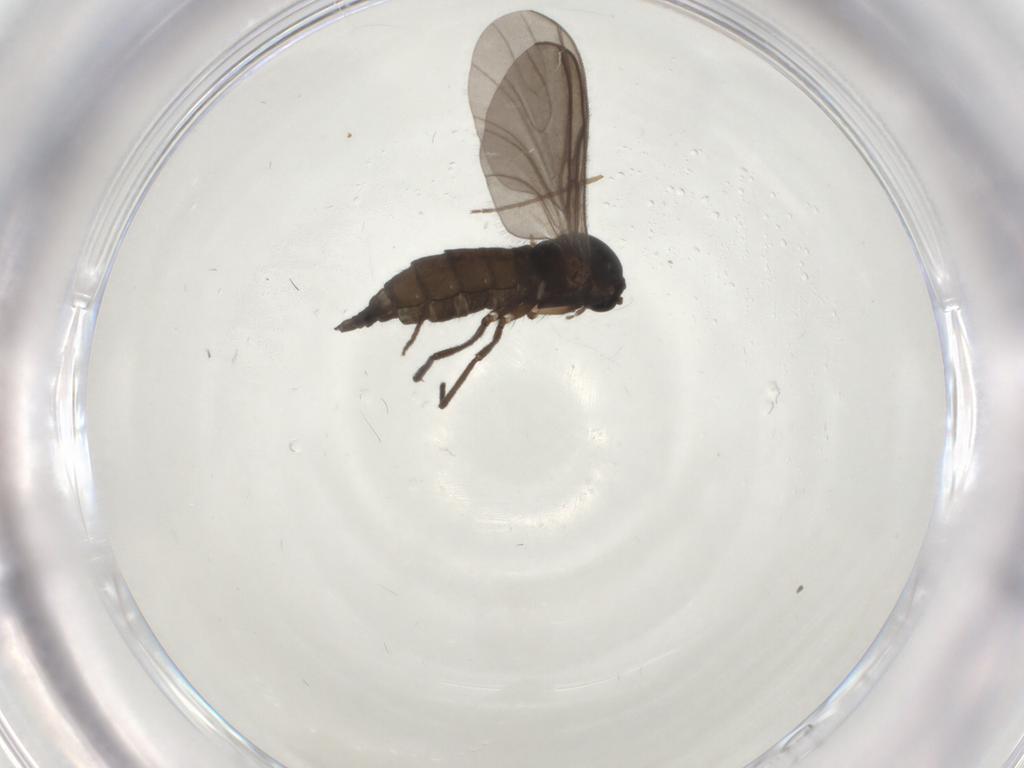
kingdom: Animalia
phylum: Arthropoda
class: Insecta
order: Diptera
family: Sciaridae
